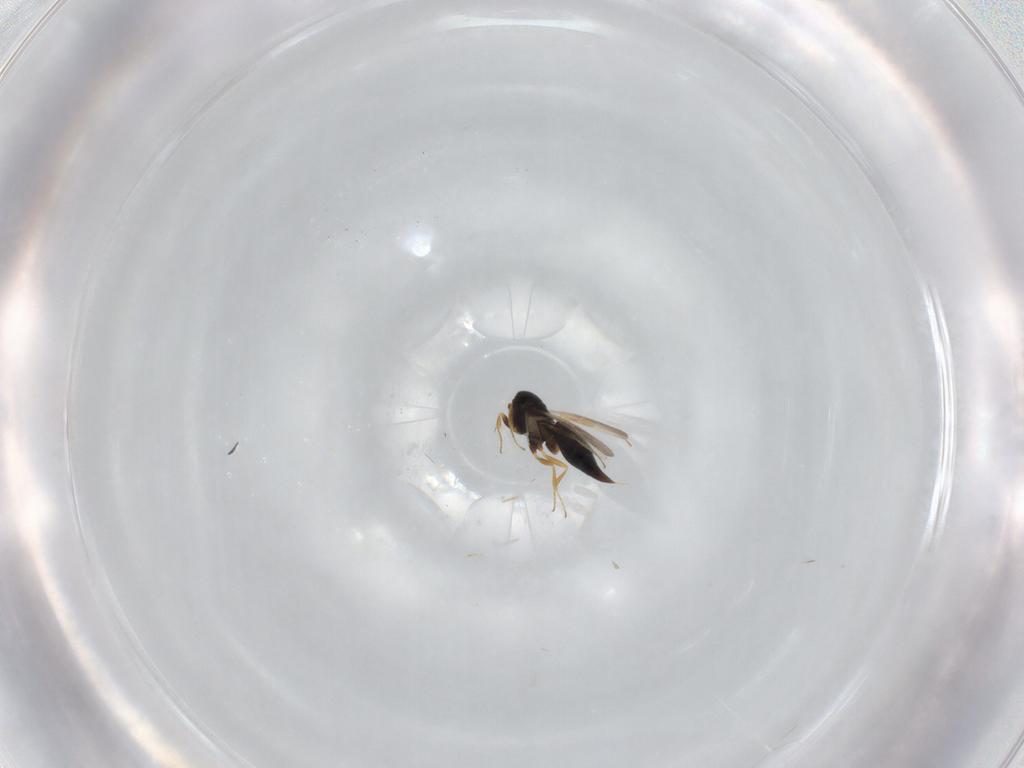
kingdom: Animalia
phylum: Arthropoda
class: Insecta
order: Hymenoptera
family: Scelionidae
